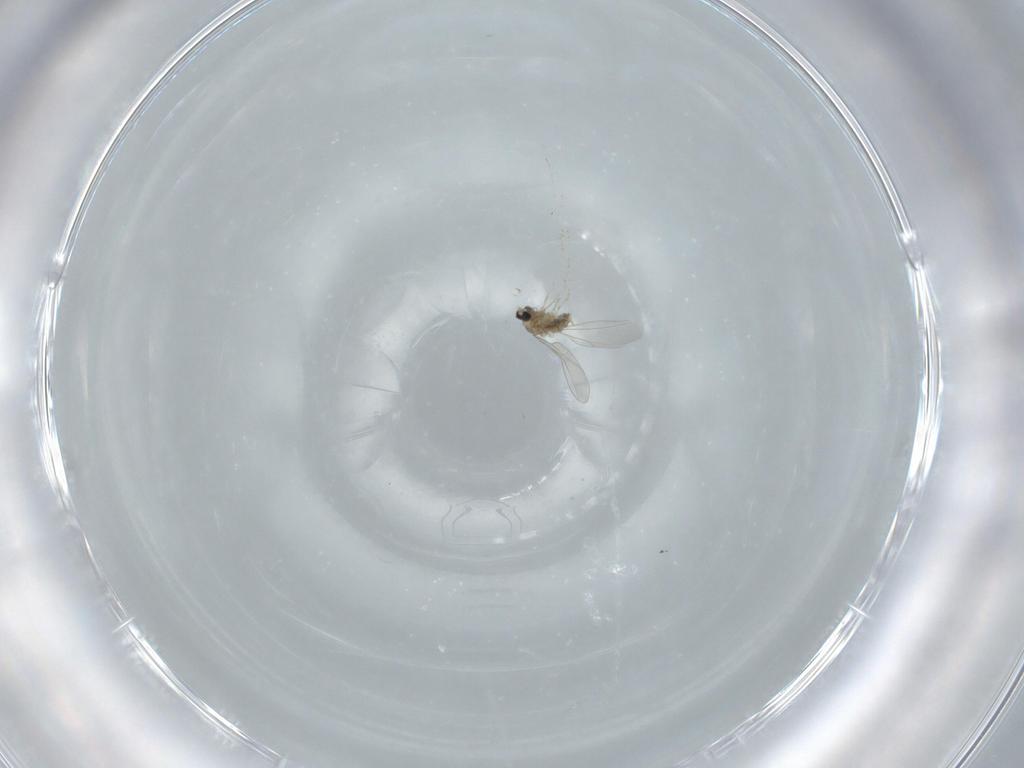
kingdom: Animalia
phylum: Arthropoda
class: Insecta
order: Diptera
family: Cecidomyiidae
